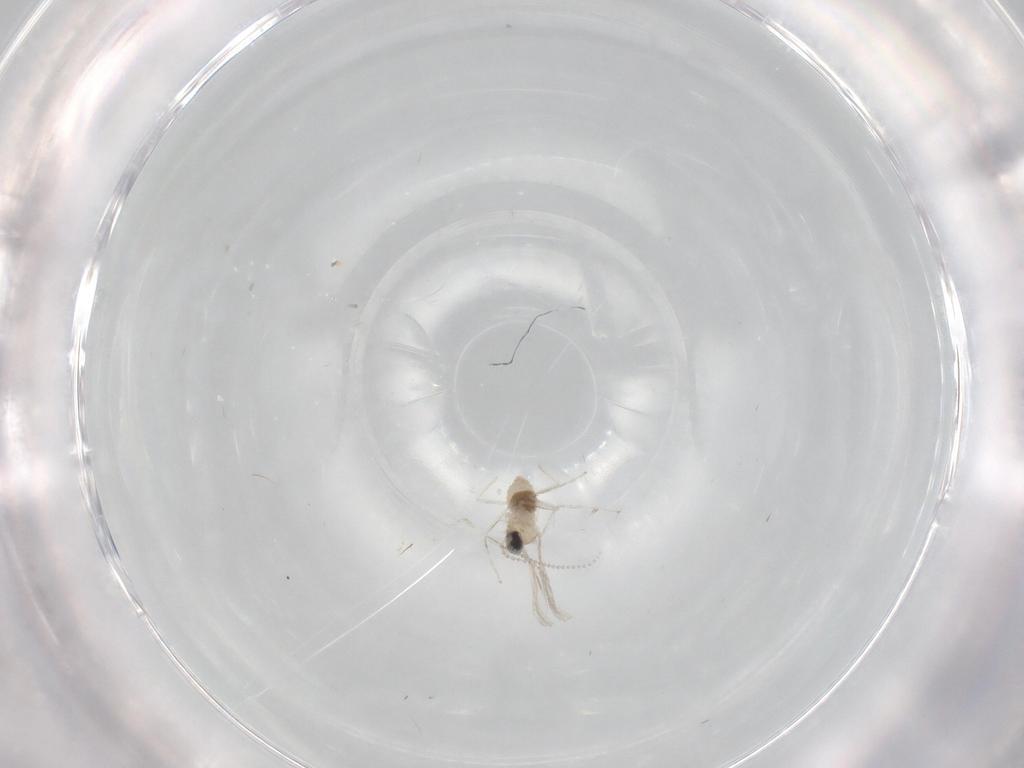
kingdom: Animalia
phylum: Arthropoda
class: Insecta
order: Diptera
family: Cecidomyiidae
